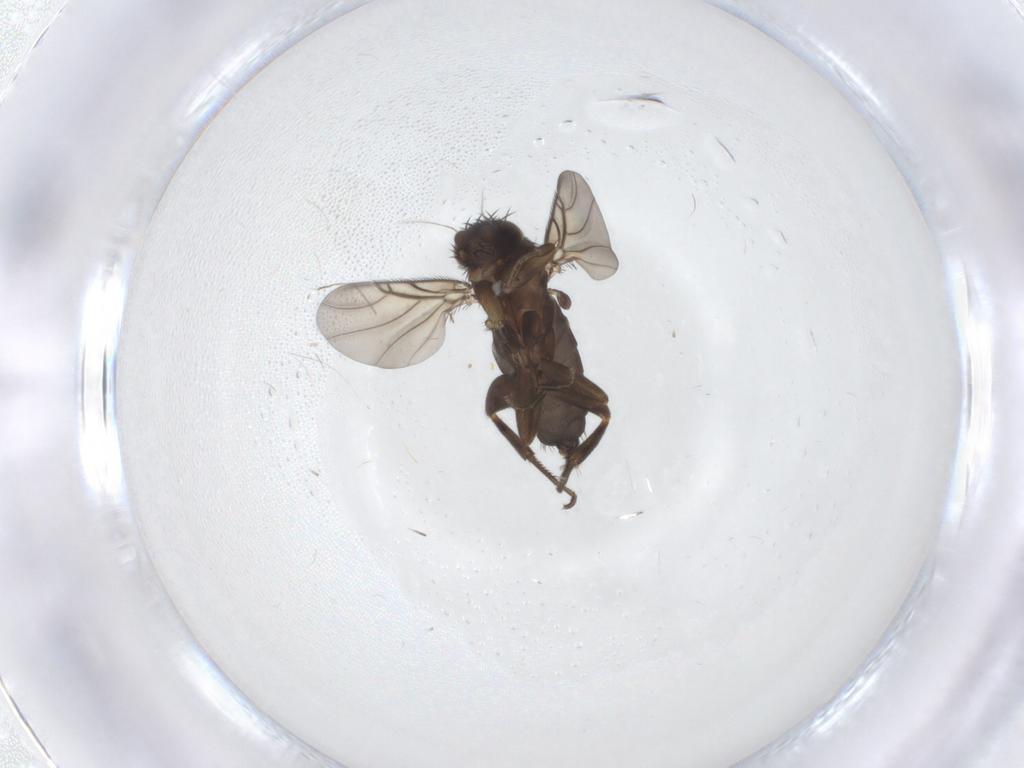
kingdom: Animalia
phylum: Arthropoda
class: Insecta
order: Diptera
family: Phoridae
